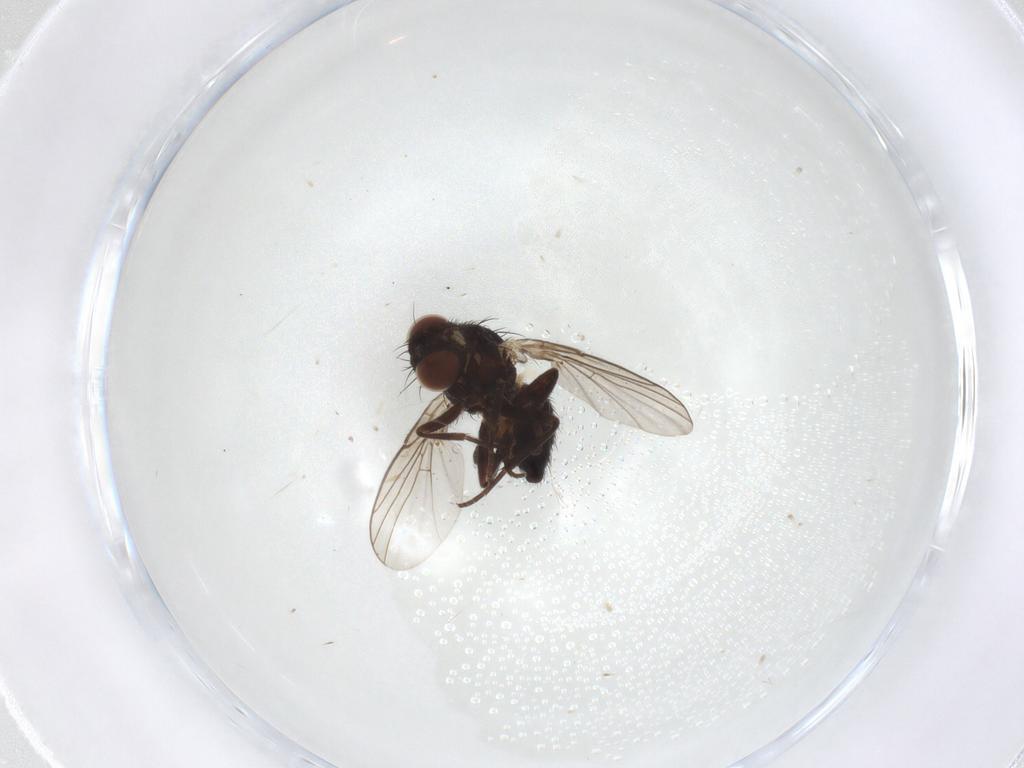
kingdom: Animalia
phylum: Arthropoda
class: Insecta
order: Diptera
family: Agromyzidae
